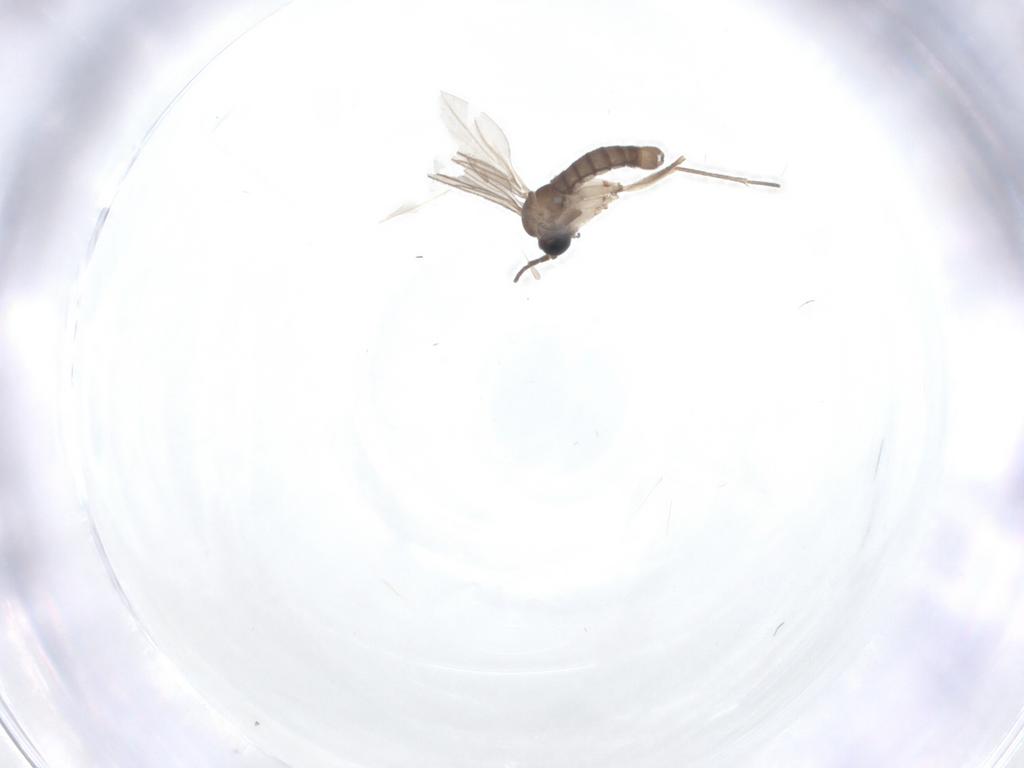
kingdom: Animalia
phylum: Arthropoda
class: Insecta
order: Diptera
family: Sciaridae
